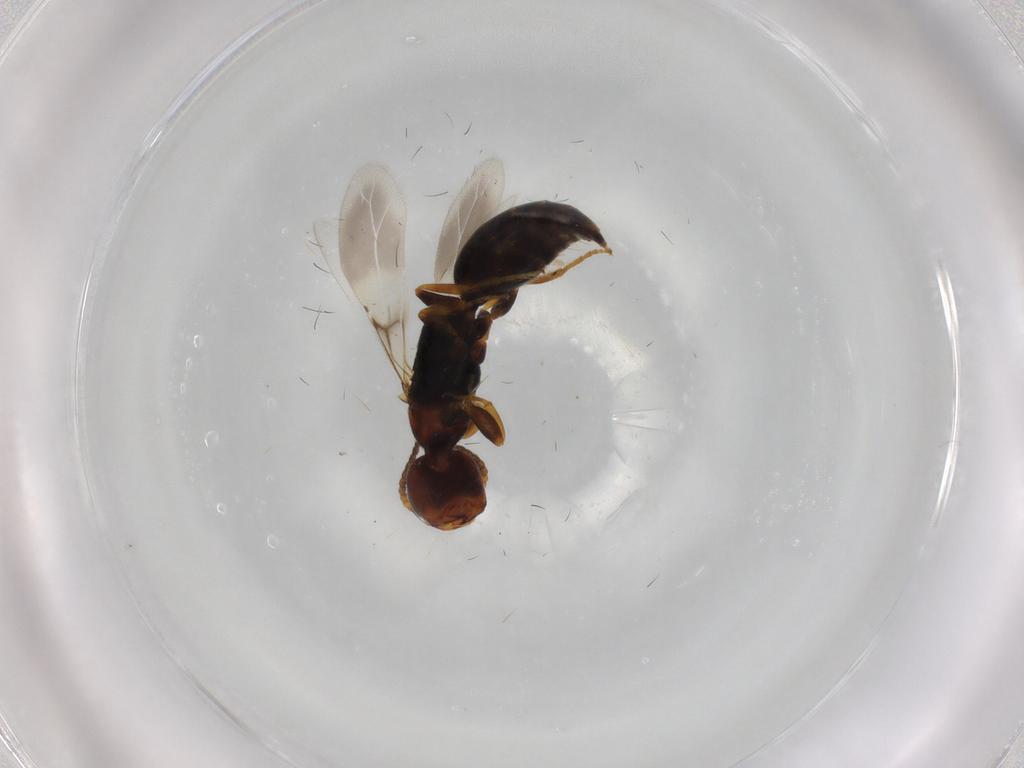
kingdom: Animalia
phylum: Arthropoda
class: Insecta
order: Hymenoptera
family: Bethylidae
